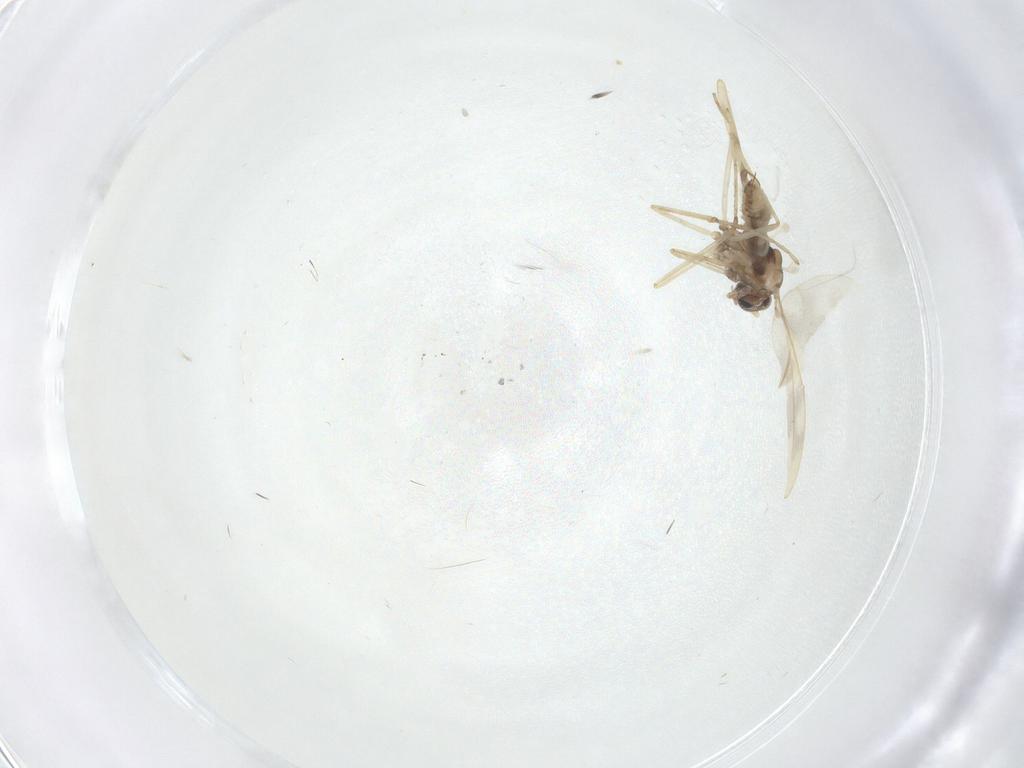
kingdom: Animalia
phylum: Arthropoda
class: Insecta
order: Diptera
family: Cecidomyiidae
